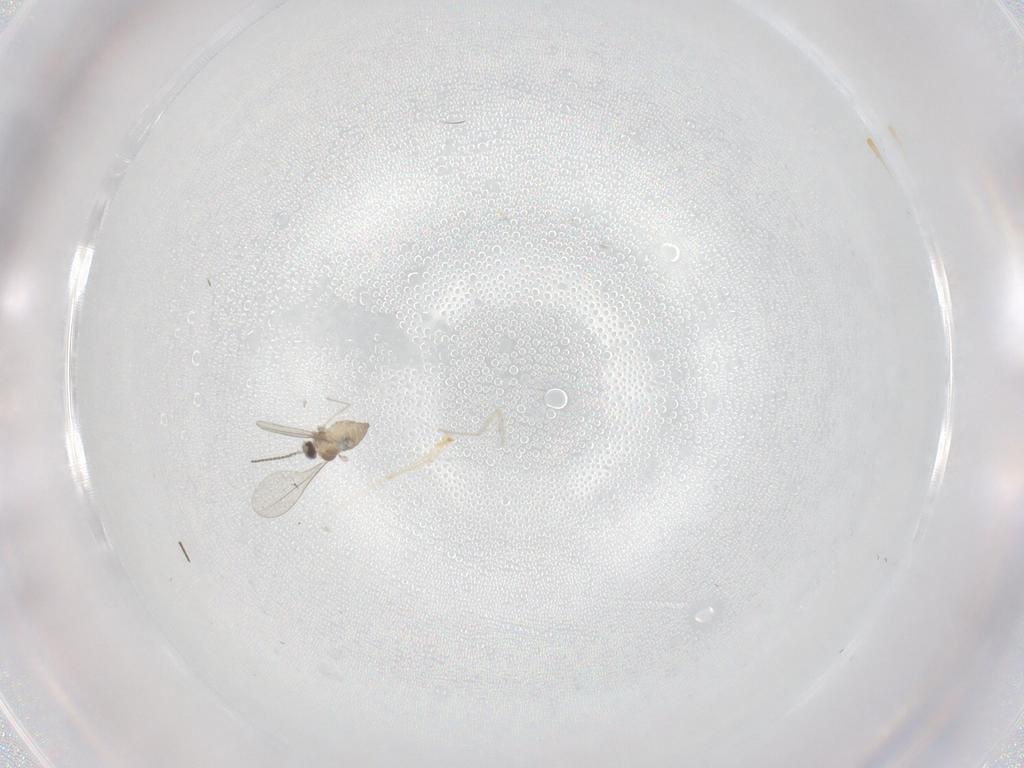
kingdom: Animalia
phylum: Arthropoda
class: Insecta
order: Diptera
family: Cecidomyiidae
